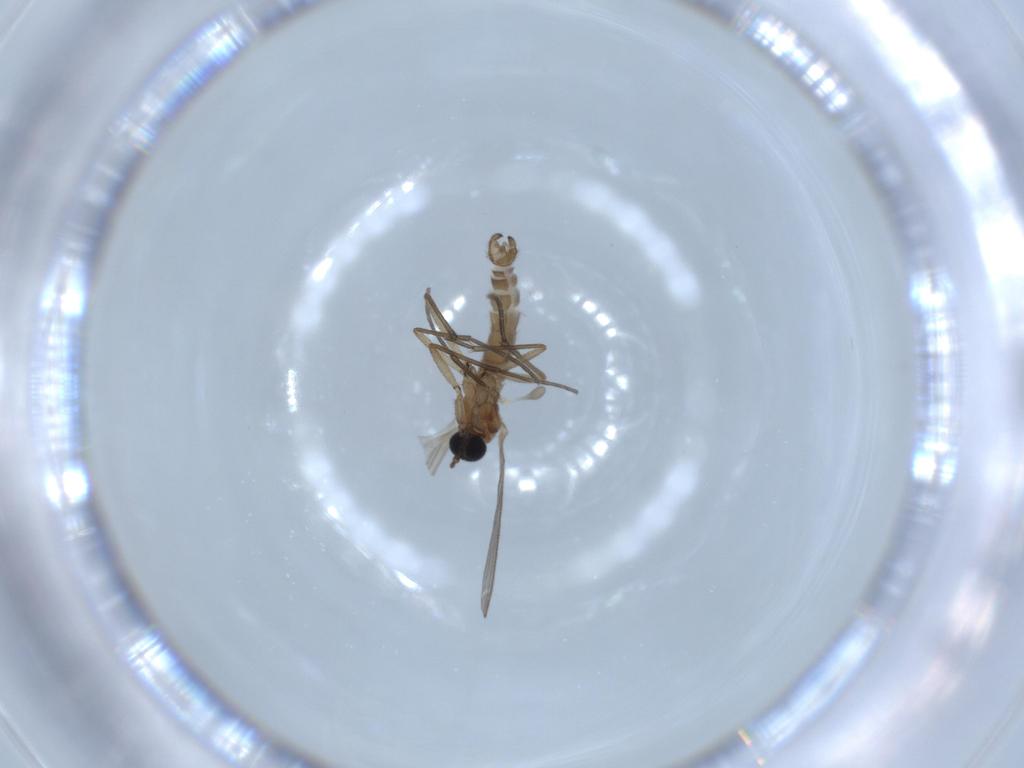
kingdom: Animalia
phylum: Arthropoda
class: Insecta
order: Diptera
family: Sciaridae
